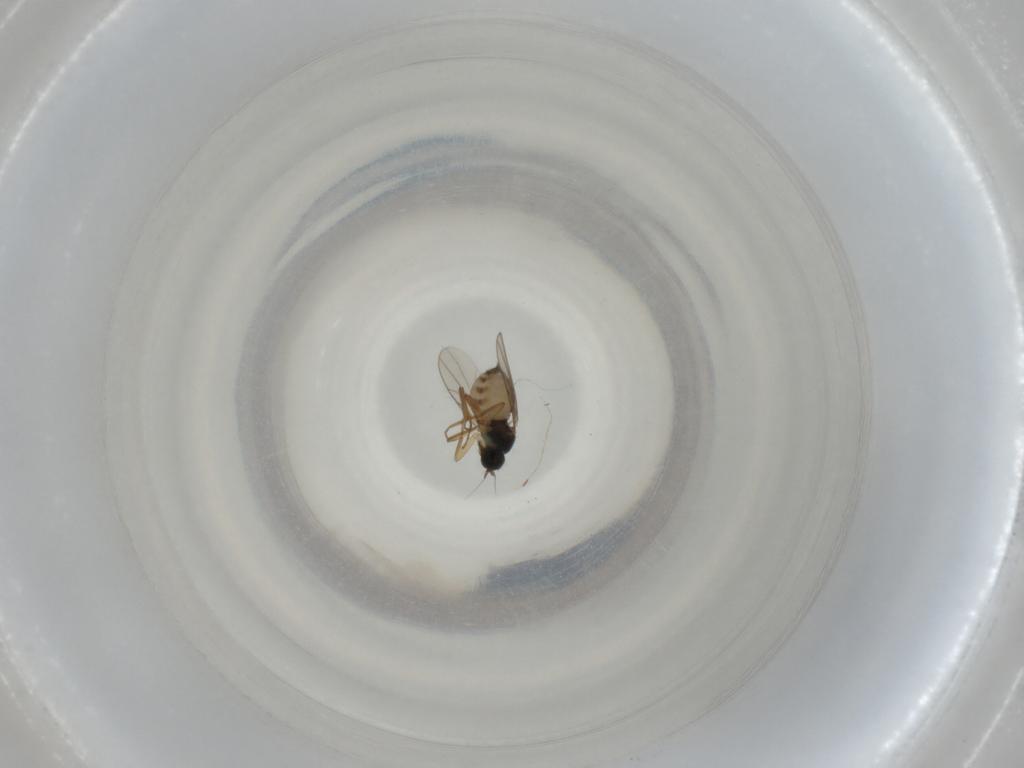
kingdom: Animalia
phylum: Arthropoda
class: Insecta
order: Diptera
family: Hybotidae
